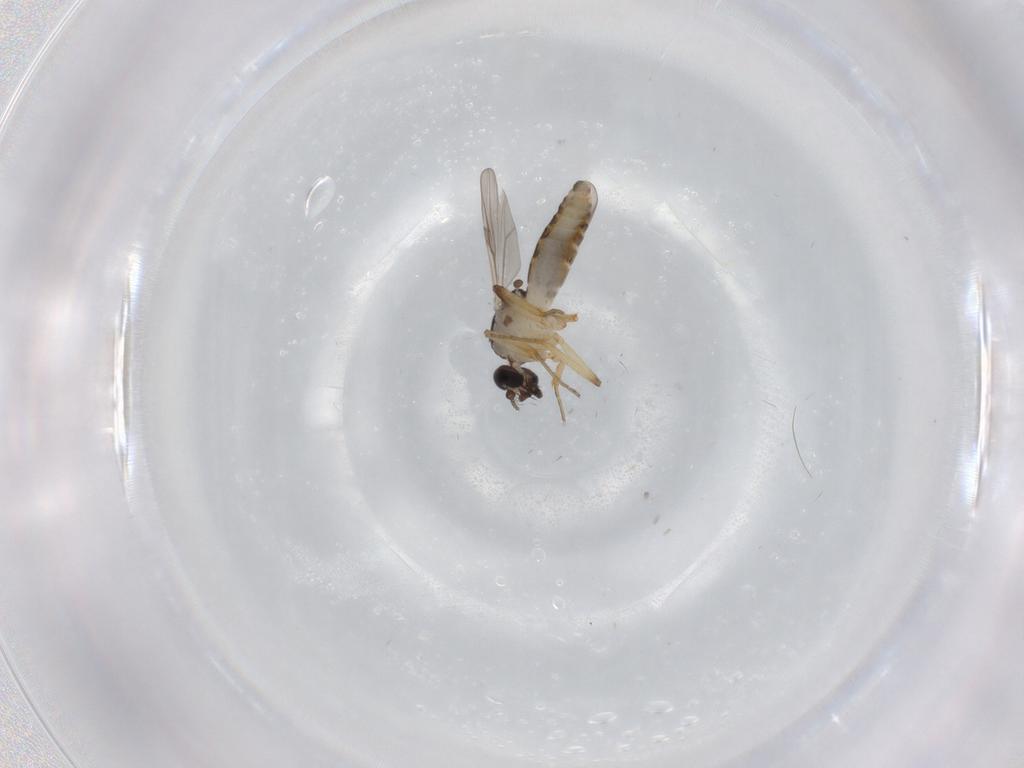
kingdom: Animalia
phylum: Arthropoda
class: Insecta
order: Diptera
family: Ceratopogonidae
